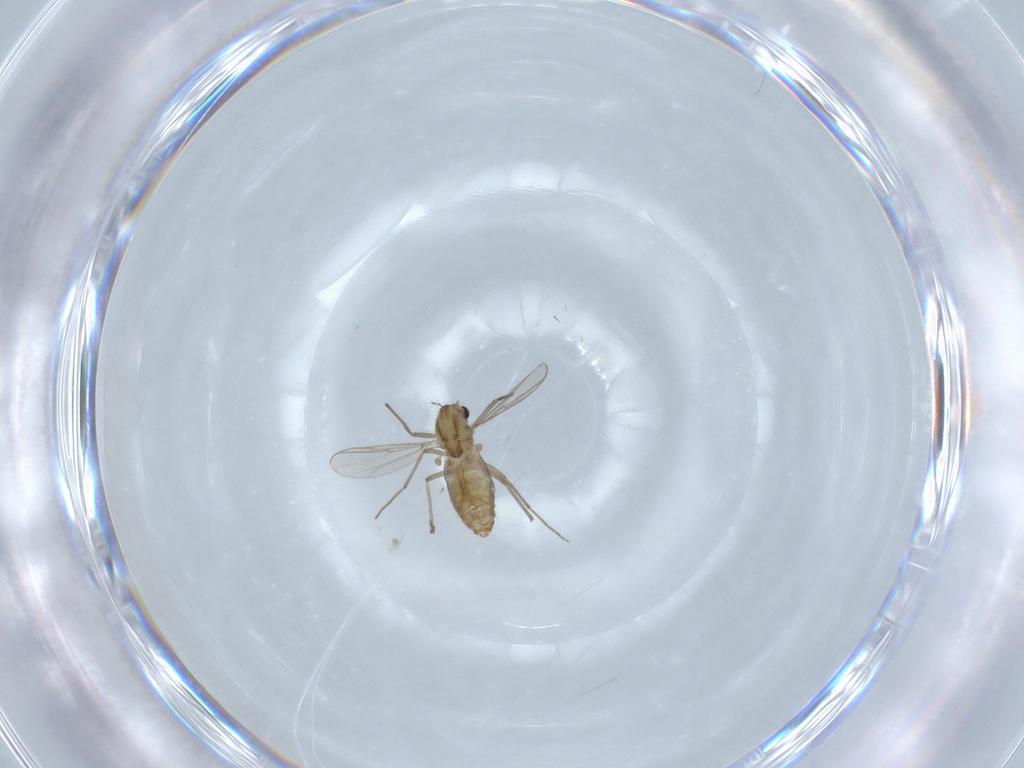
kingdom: Animalia
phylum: Arthropoda
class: Insecta
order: Diptera
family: Chironomidae
